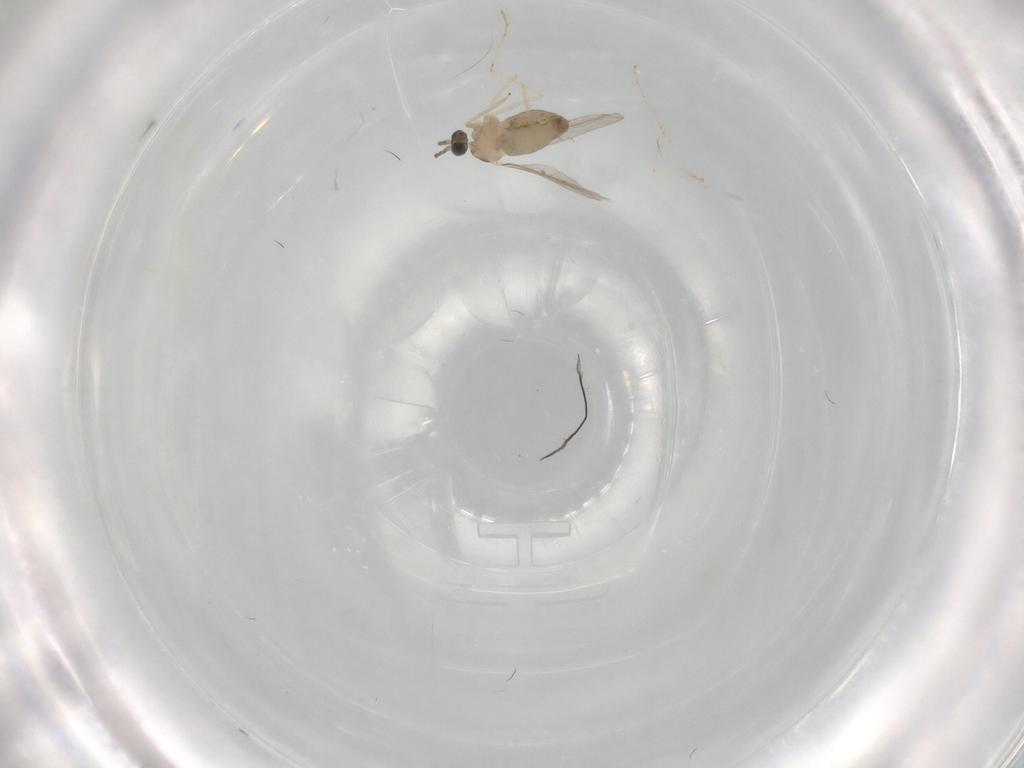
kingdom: Animalia
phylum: Arthropoda
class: Insecta
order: Diptera
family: Cecidomyiidae
